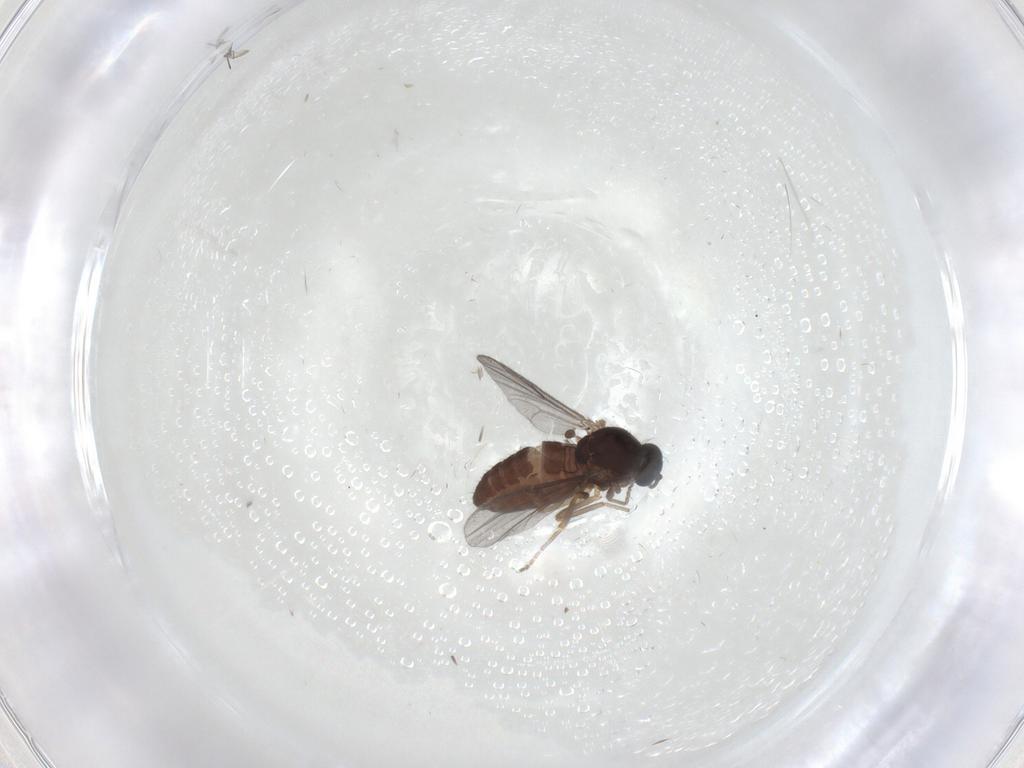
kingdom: Animalia
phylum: Arthropoda
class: Insecta
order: Diptera
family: Ceratopogonidae
